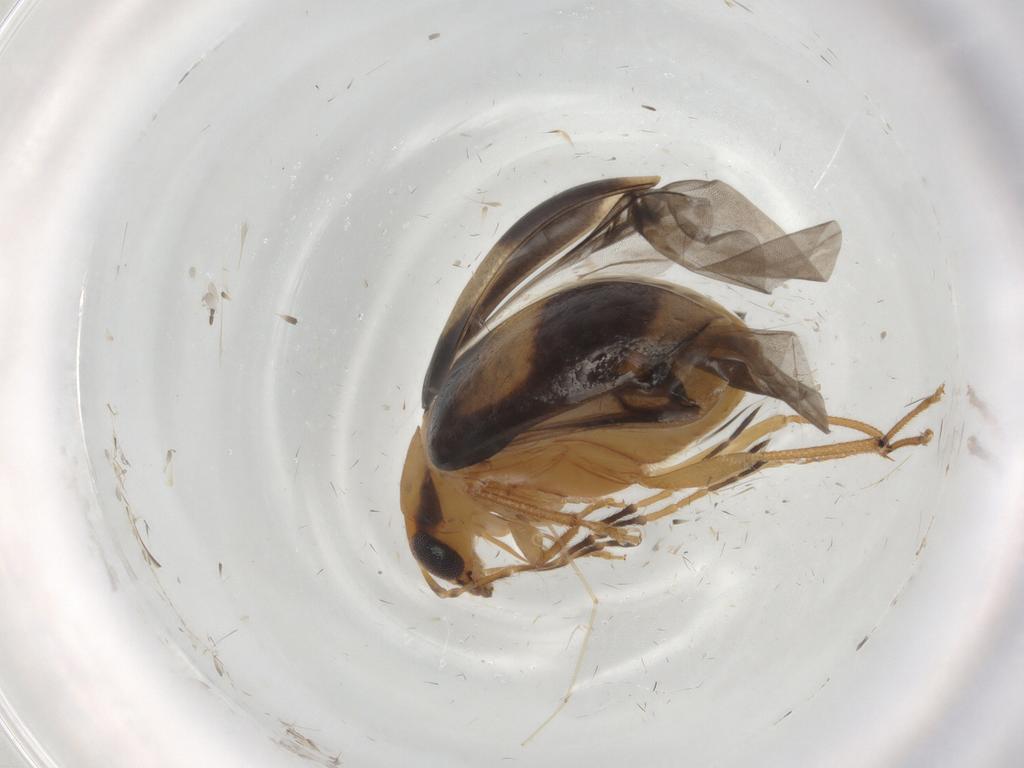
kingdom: Animalia
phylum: Arthropoda
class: Insecta
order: Coleoptera
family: Chrysomelidae
